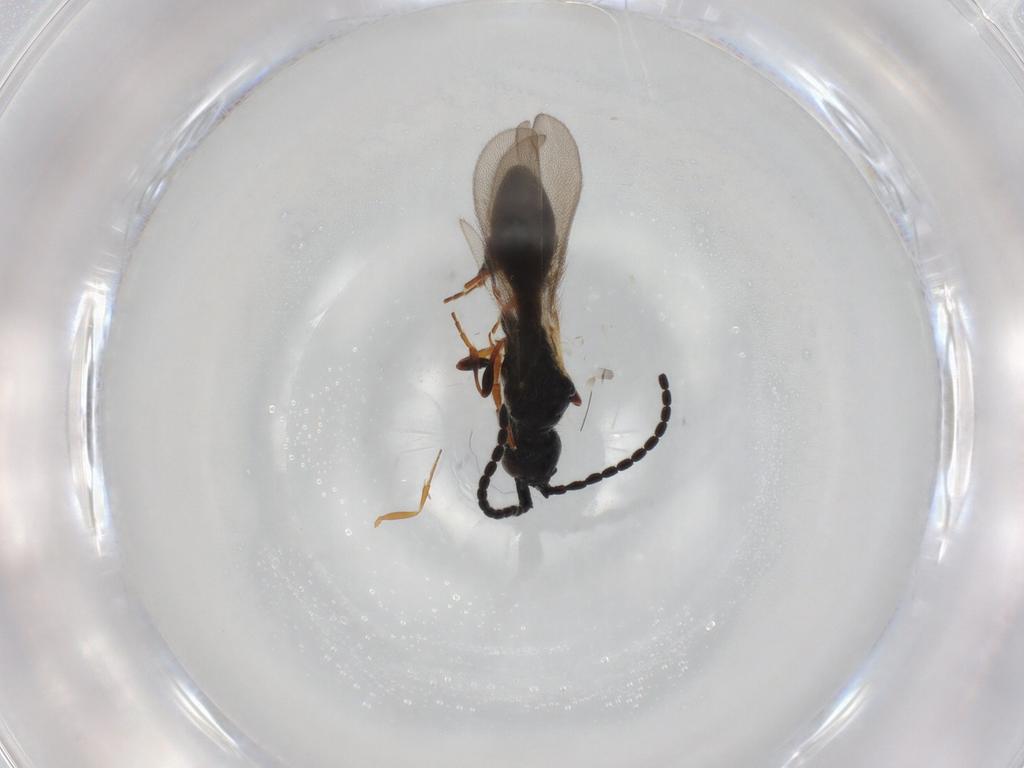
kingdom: Animalia
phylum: Arthropoda
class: Insecta
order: Hymenoptera
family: Diapriidae
